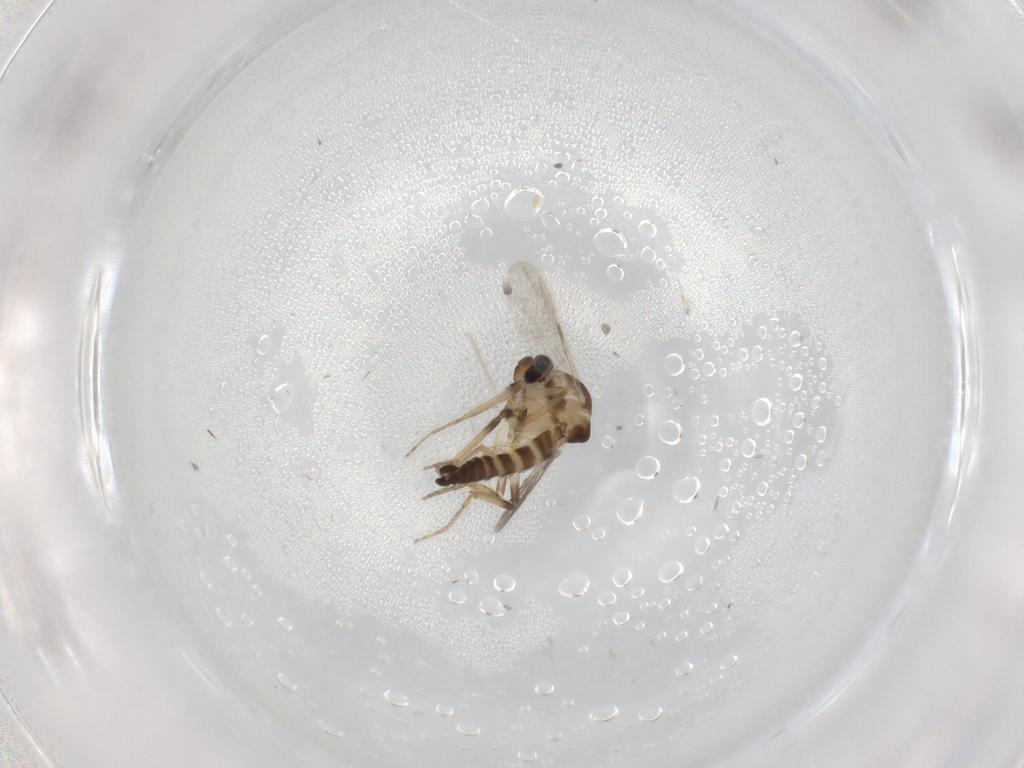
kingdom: Animalia
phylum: Arthropoda
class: Insecta
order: Diptera
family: Ceratopogonidae
